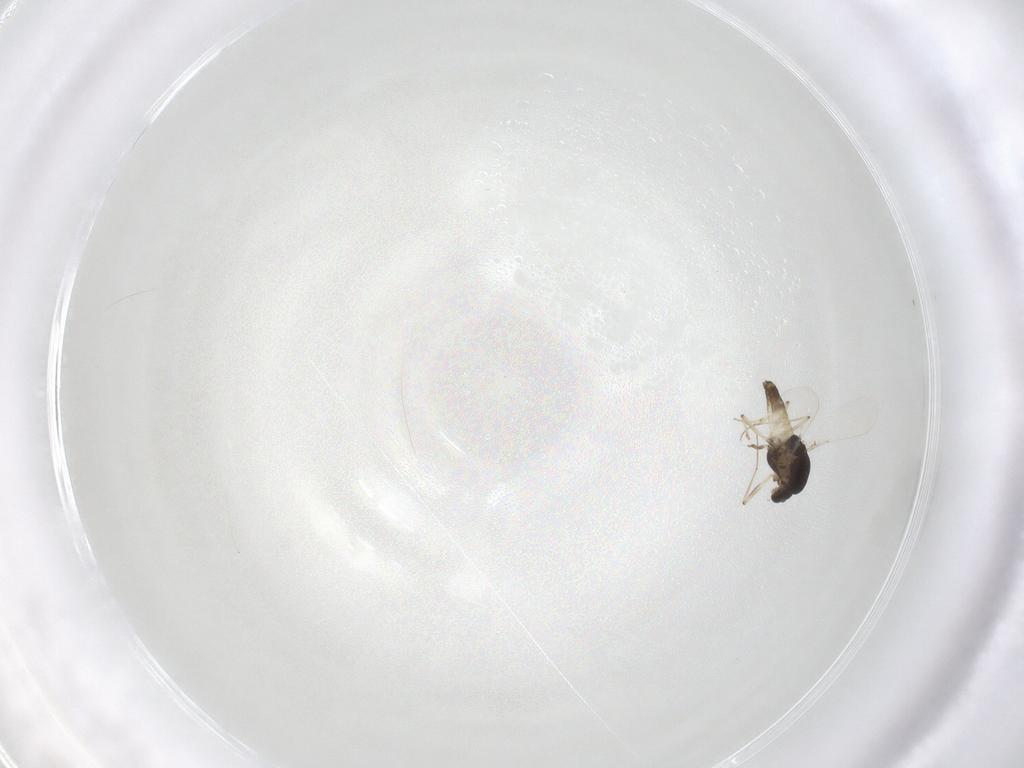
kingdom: Animalia
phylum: Arthropoda
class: Insecta
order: Diptera
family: Chironomidae
